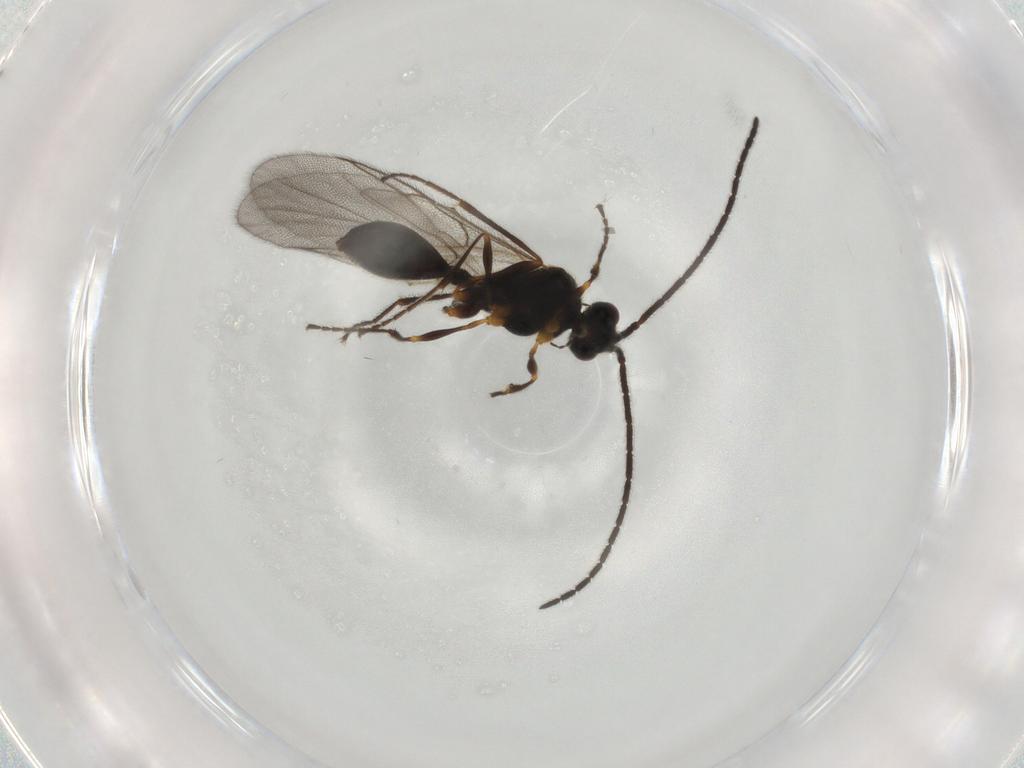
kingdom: Animalia
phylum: Arthropoda
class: Insecta
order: Hymenoptera
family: Diapriidae
